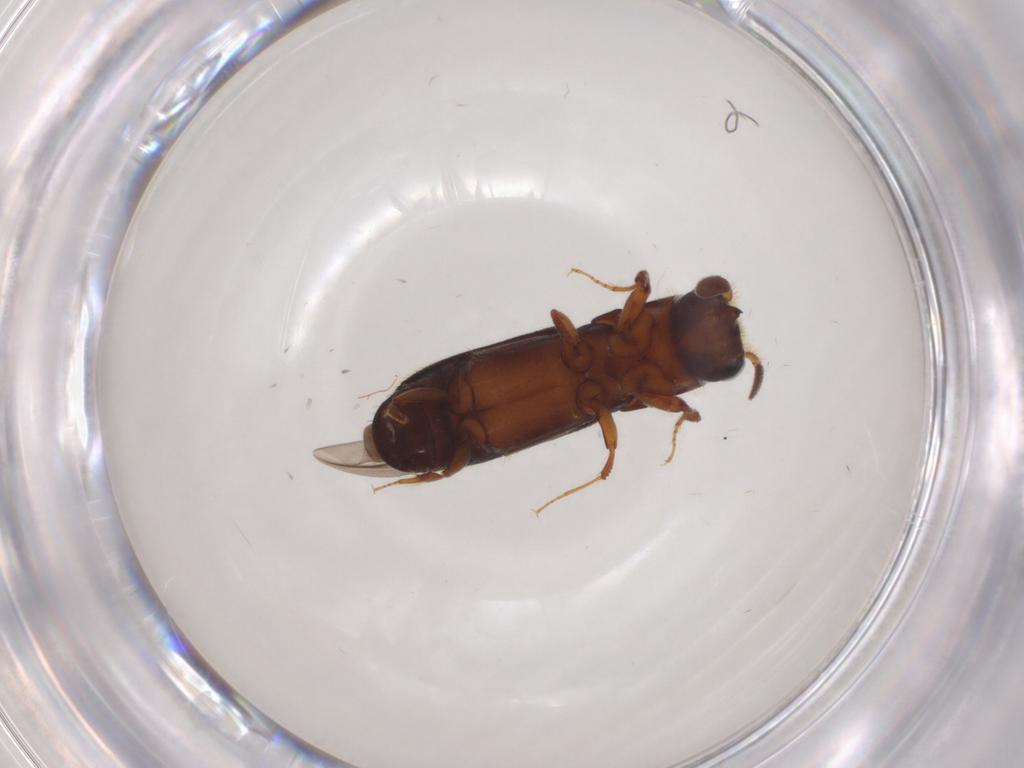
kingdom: Animalia
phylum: Arthropoda
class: Insecta
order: Coleoptera
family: Curculionidae
